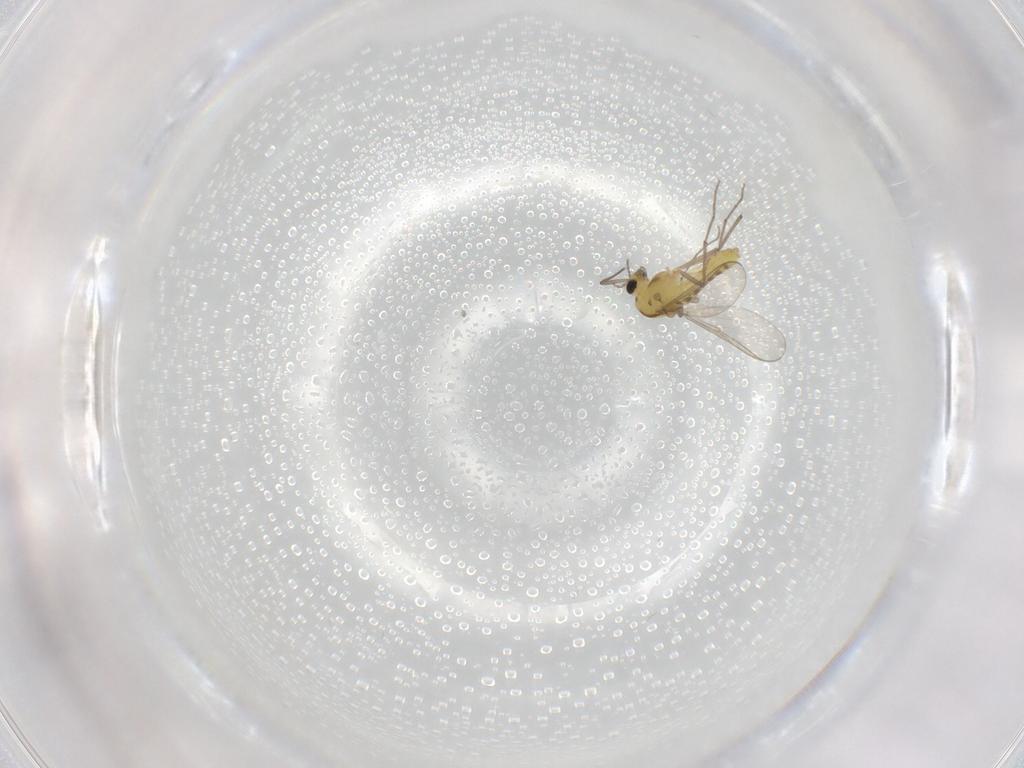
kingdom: Animalia
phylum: Arthropoda
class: Insecta
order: Diptera
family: Chironomidae
